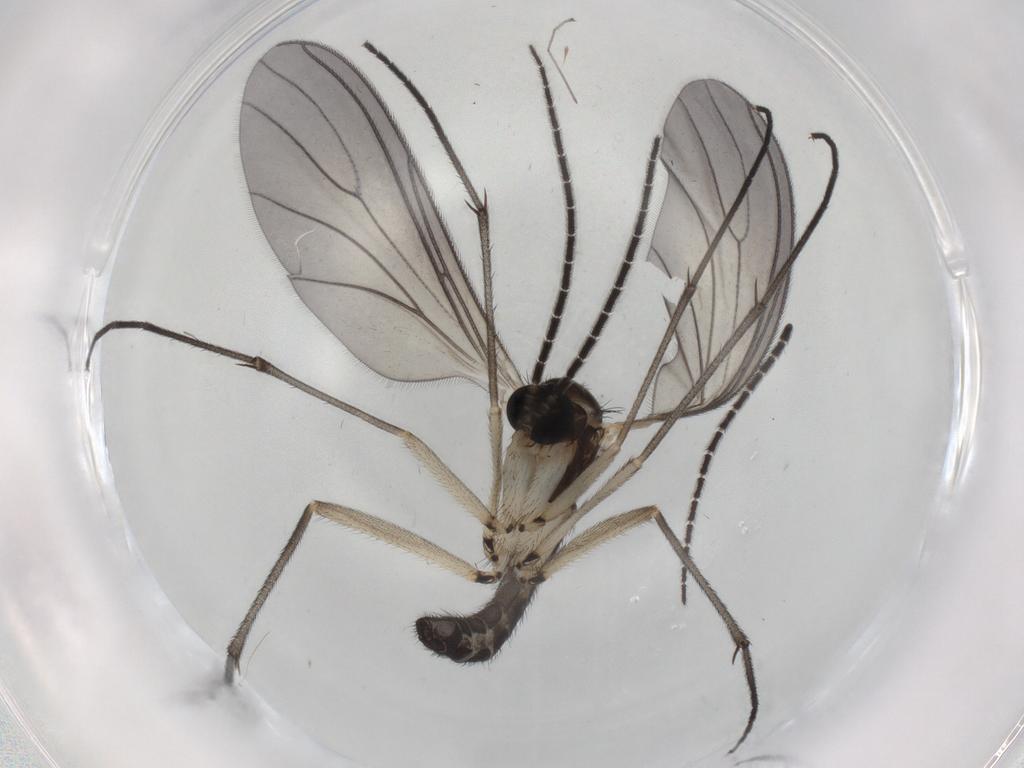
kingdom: Animalia
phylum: Arthropoda
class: Insecta
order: Diptera
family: Sciaridae
